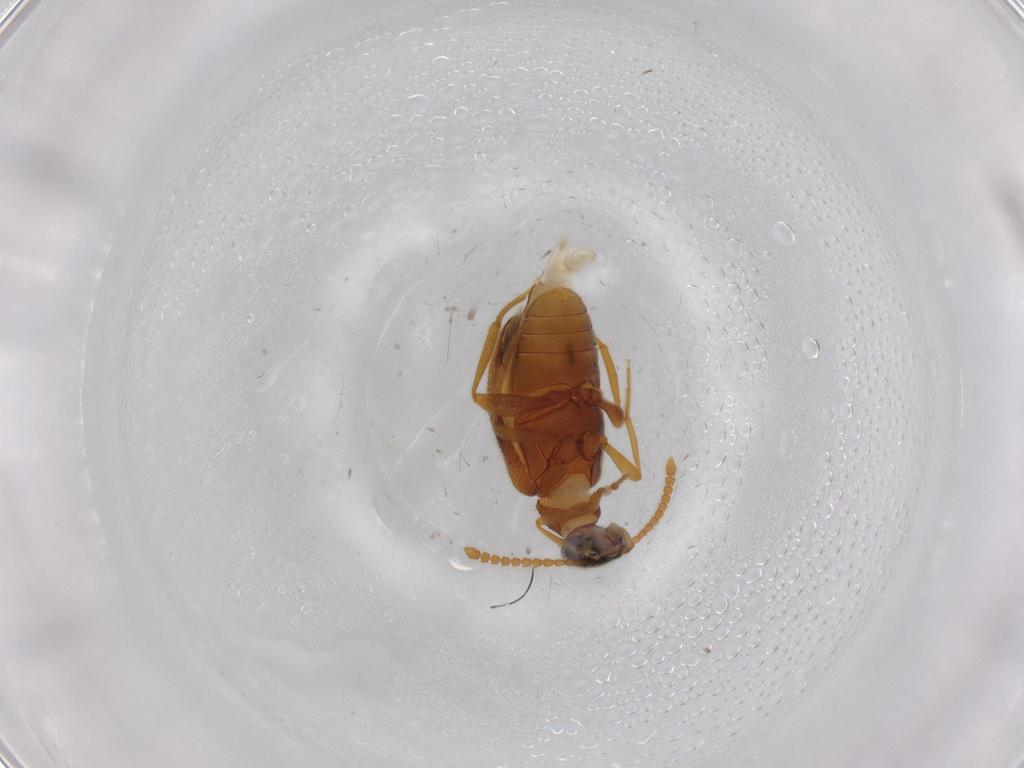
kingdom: Animalia
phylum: Arthropoda
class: Insecta
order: Coleoptera
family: Aderidae
